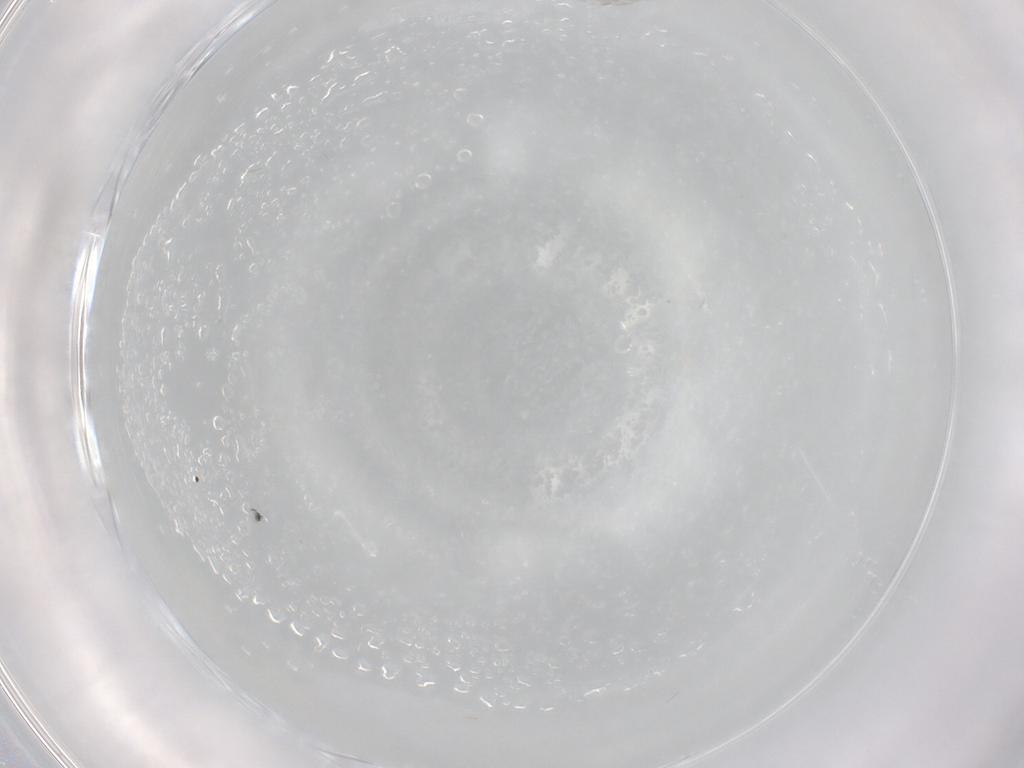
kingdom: Animalia
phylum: Arthropoda
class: Collembola
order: Entomobryomorpha
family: Entomobryidae
